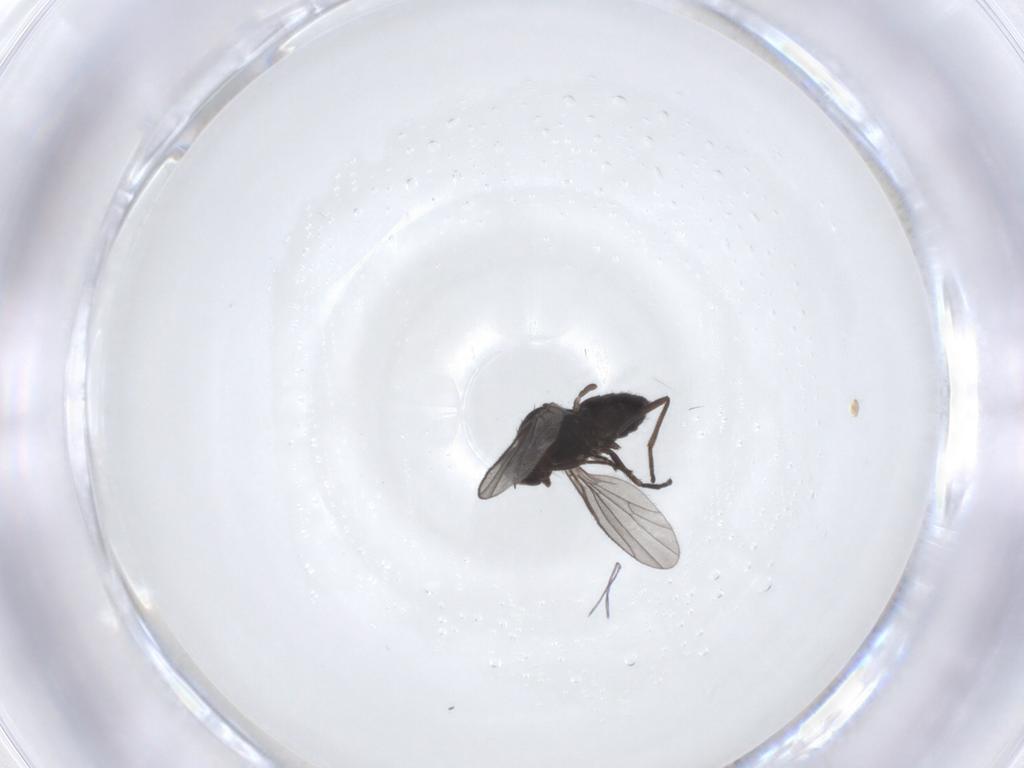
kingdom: Animalia
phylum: Arthropoda
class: Insecta
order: Diptera
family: Dolichopodidae
